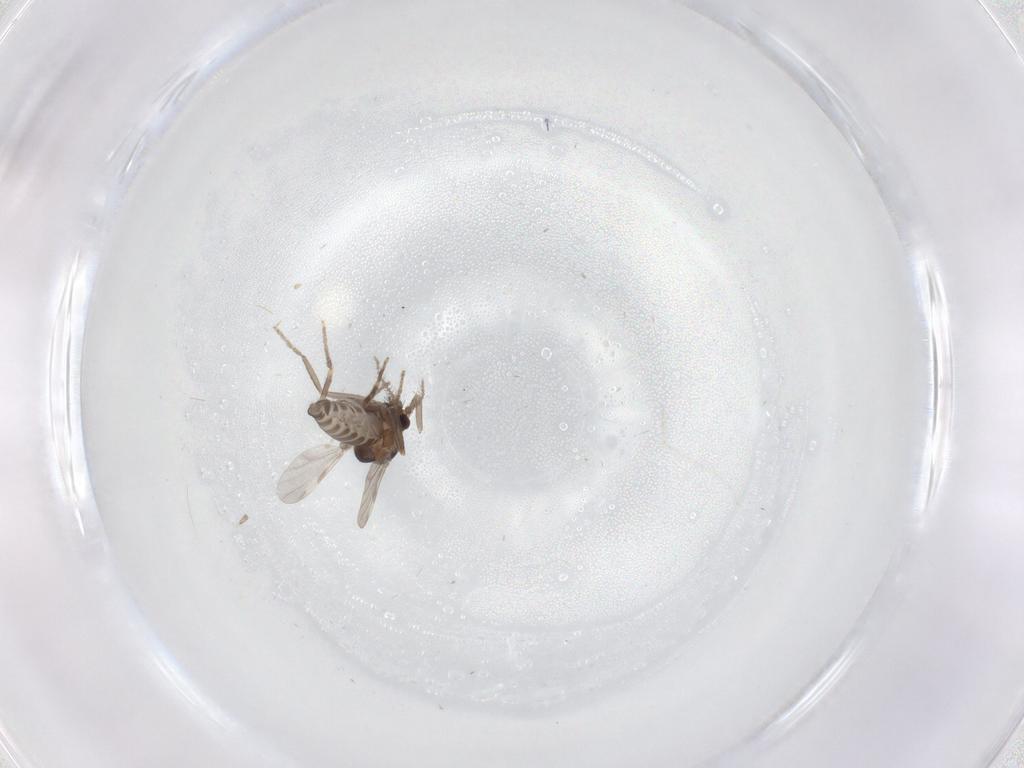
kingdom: Animalia
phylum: Arthropoda
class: Insecta
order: Diptera
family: Ceratopogonidae
